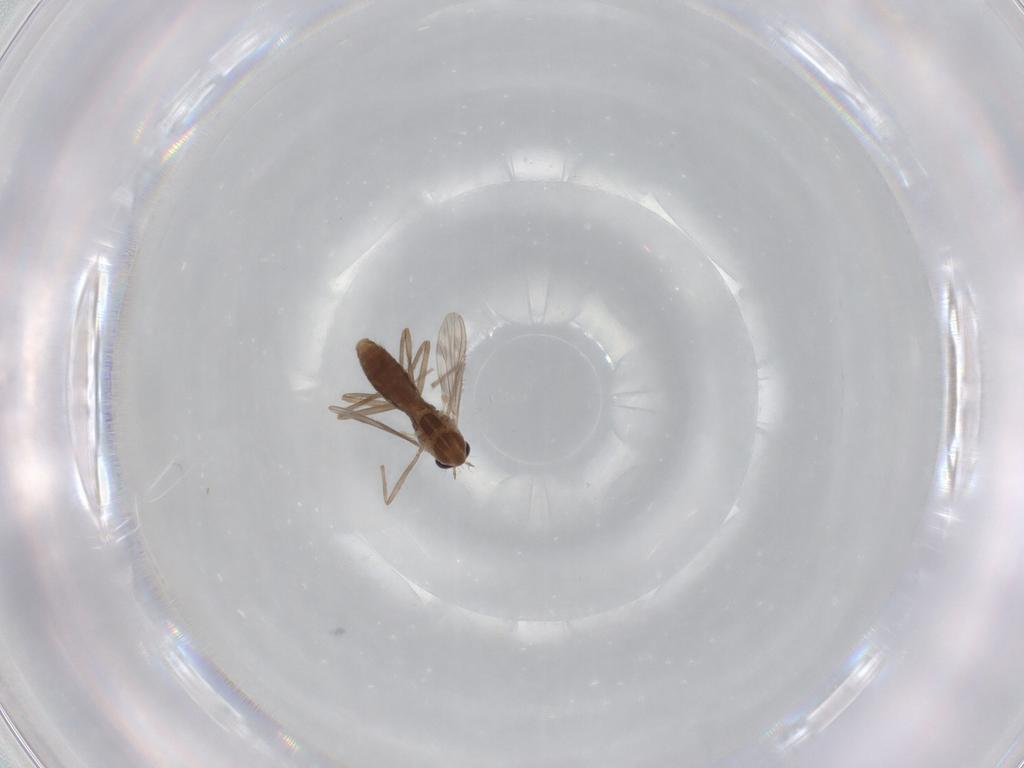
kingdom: Animalia
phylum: Arthropoda
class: Insecta
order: Diptera
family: Chironomidae
